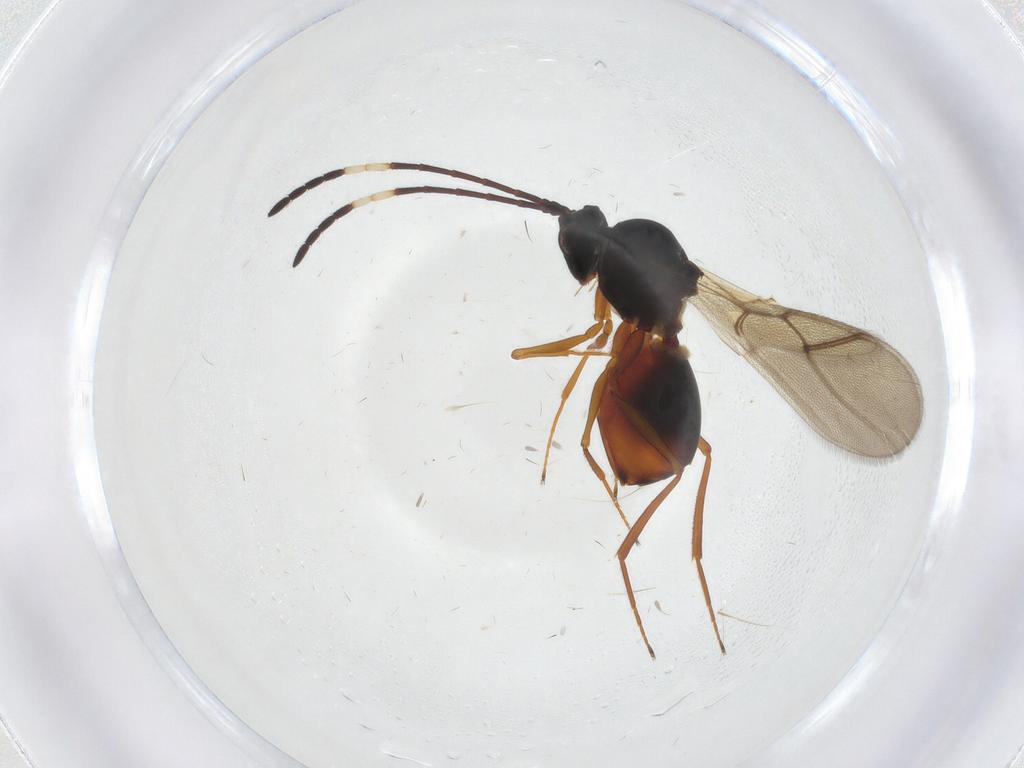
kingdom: Animalia
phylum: Arthropoda
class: Insecta
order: Hymenoptera
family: Figitidae
